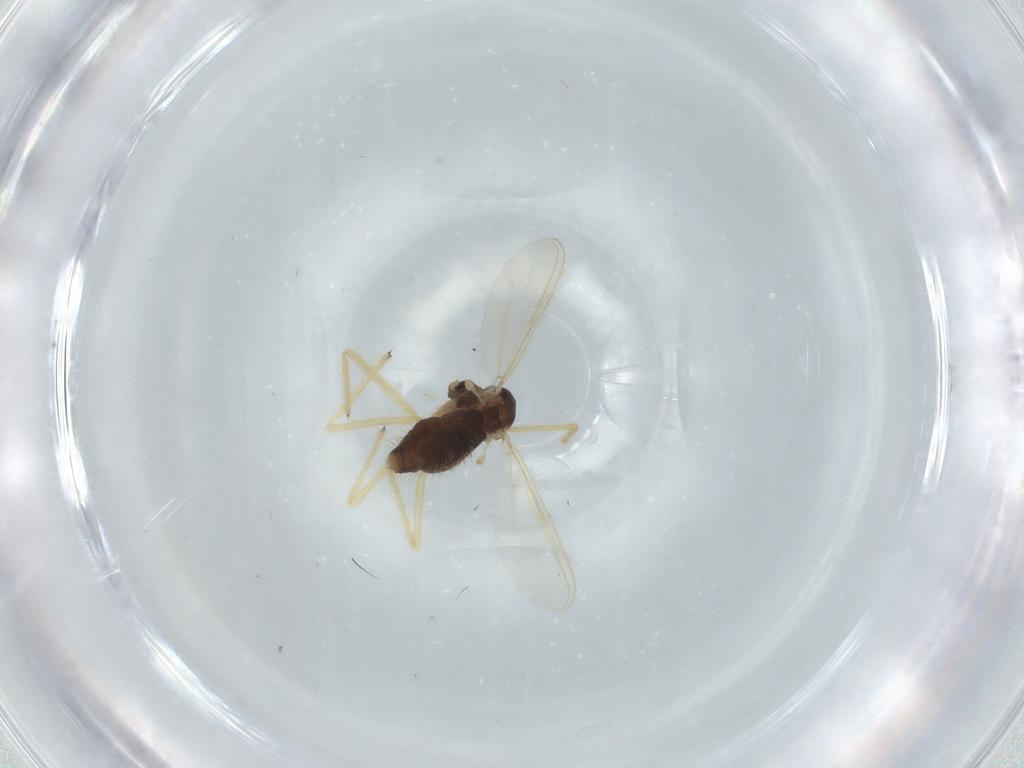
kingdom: Animalia
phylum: Arthropoda
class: Insecta
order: Diptera
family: Chironomidae
